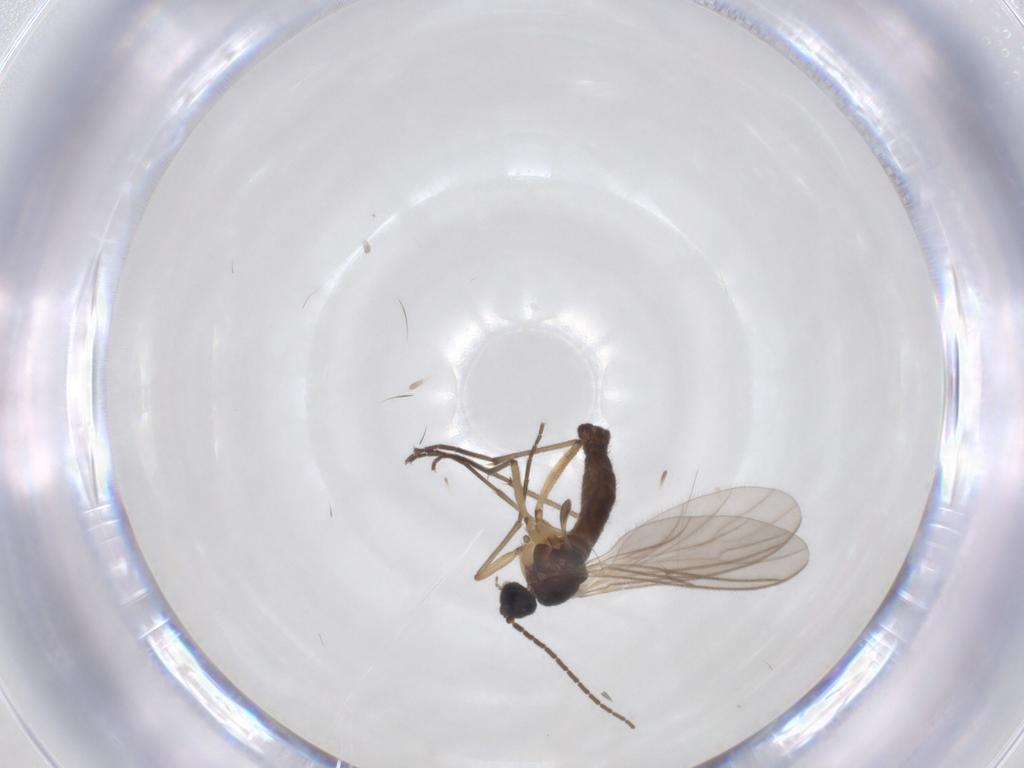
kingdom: Animalia
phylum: Arthropoda
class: Insecta
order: Diptera
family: Sciaridae
